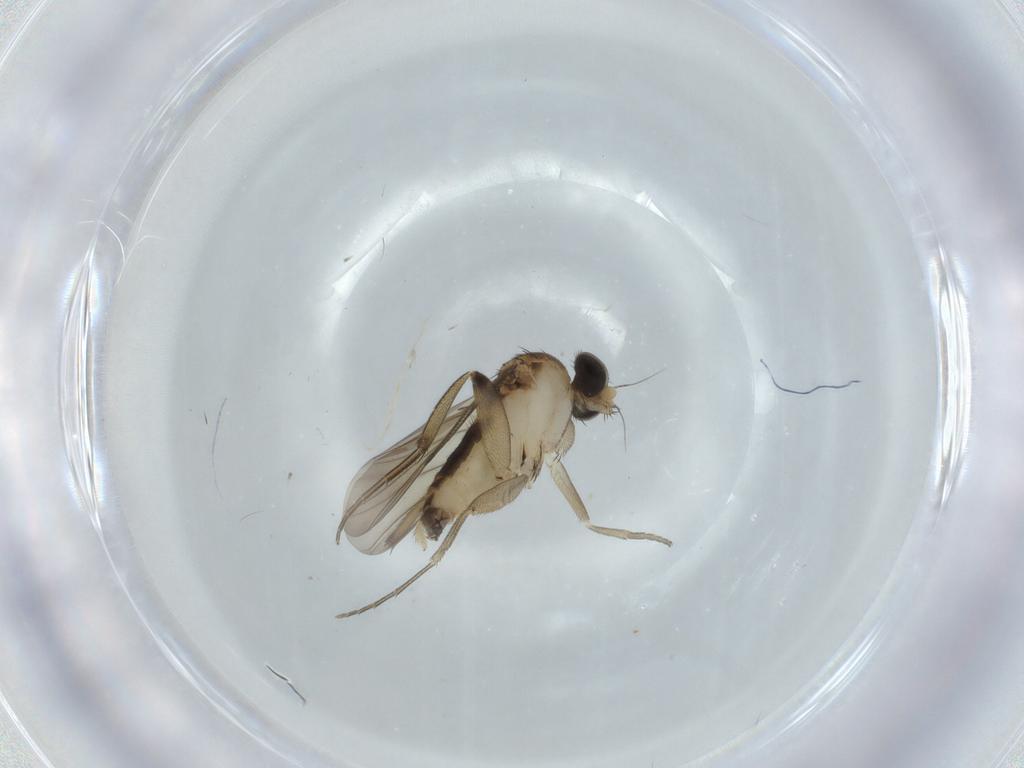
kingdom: Animalia
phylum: Arthropoda
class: Insecta
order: Diptera
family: Phoridae
